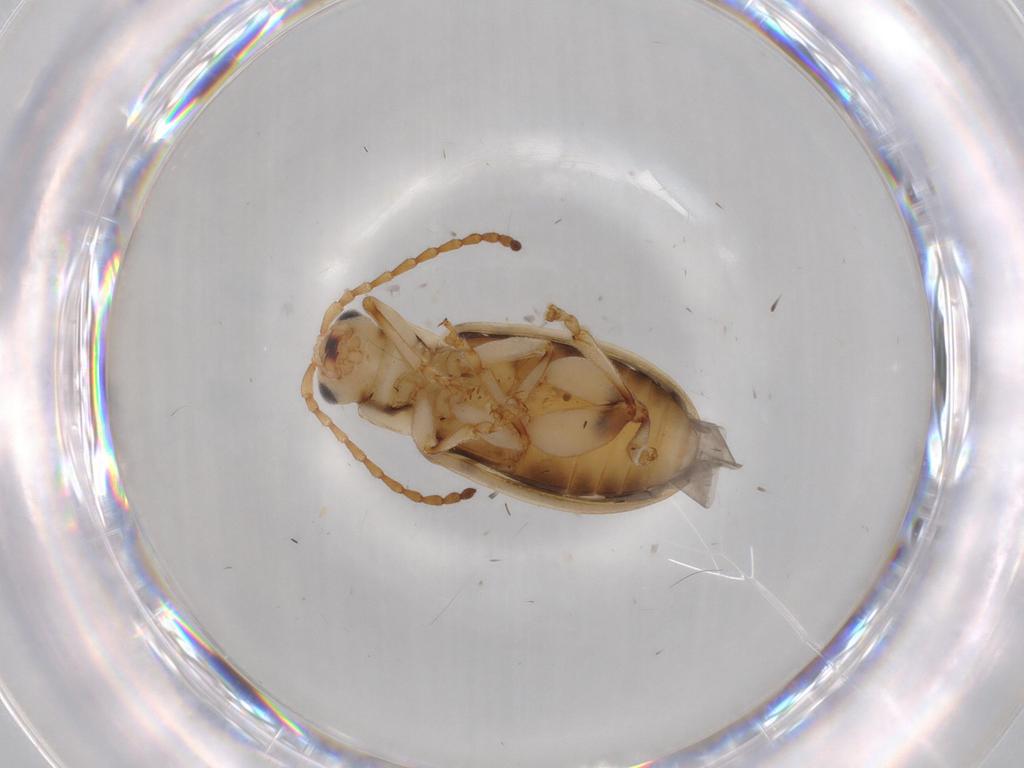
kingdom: Animalia
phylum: Arthropoda
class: Insecta
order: Coleoptera
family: Chrysomelidae
